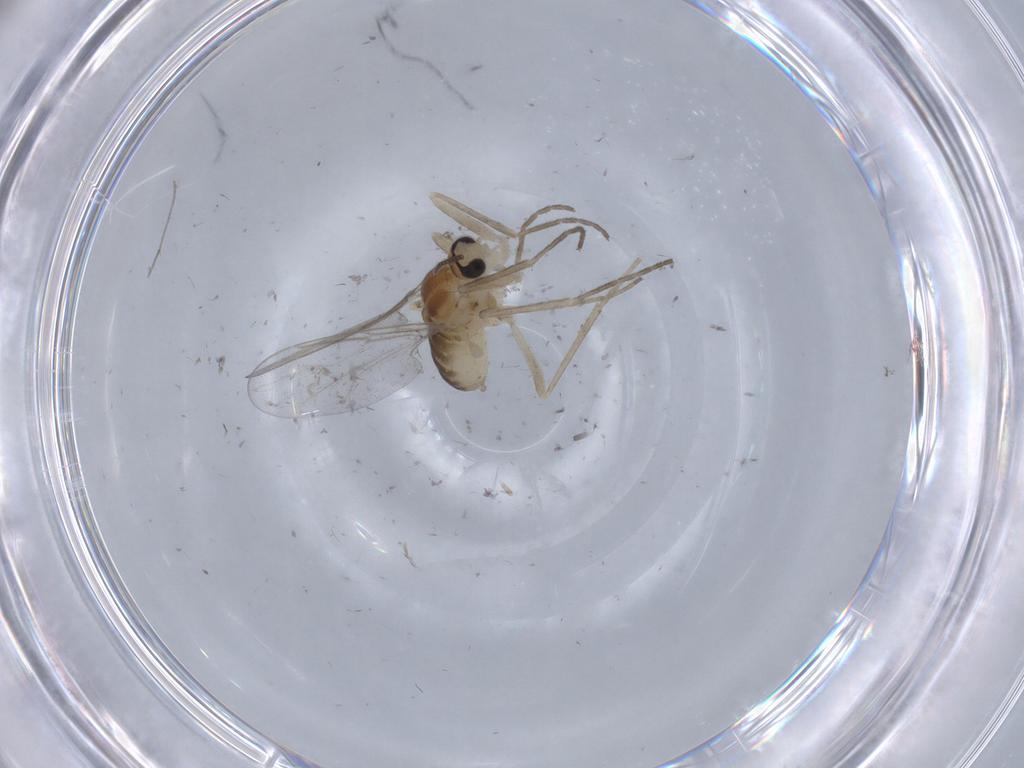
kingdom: Animalia
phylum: Arthropoda
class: Insecta
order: Diptera
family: Cecidomyiidae
